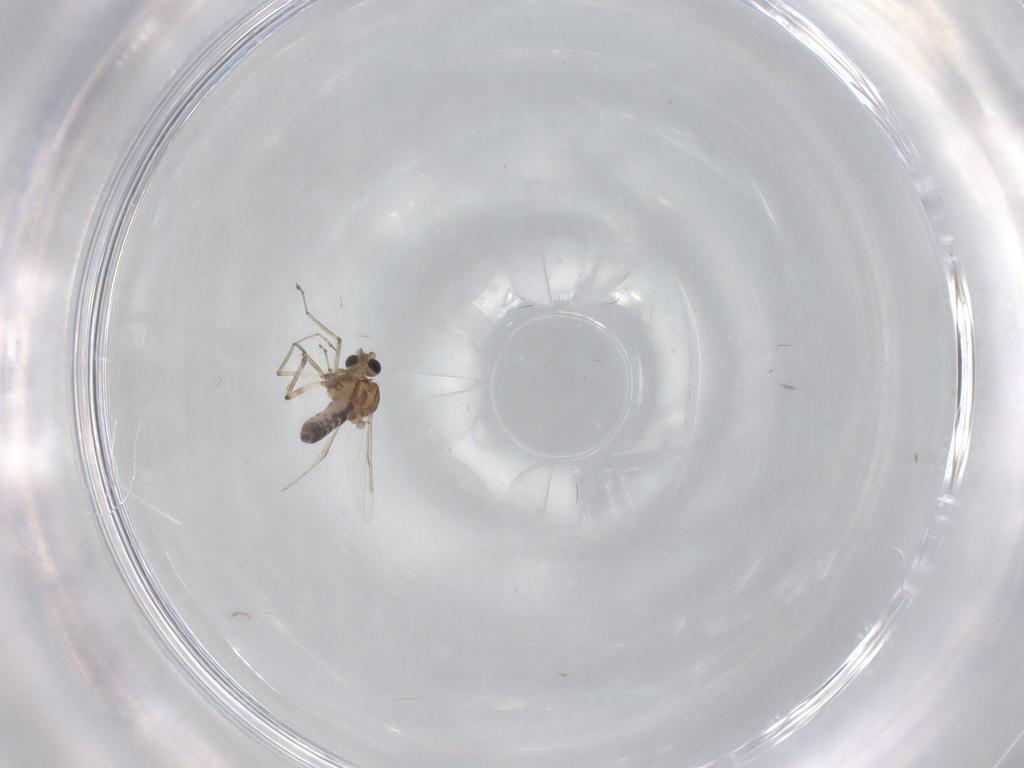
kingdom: Animalia
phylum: Arthropoda
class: Insecta
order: Diptera
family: Ceratopogonidae
